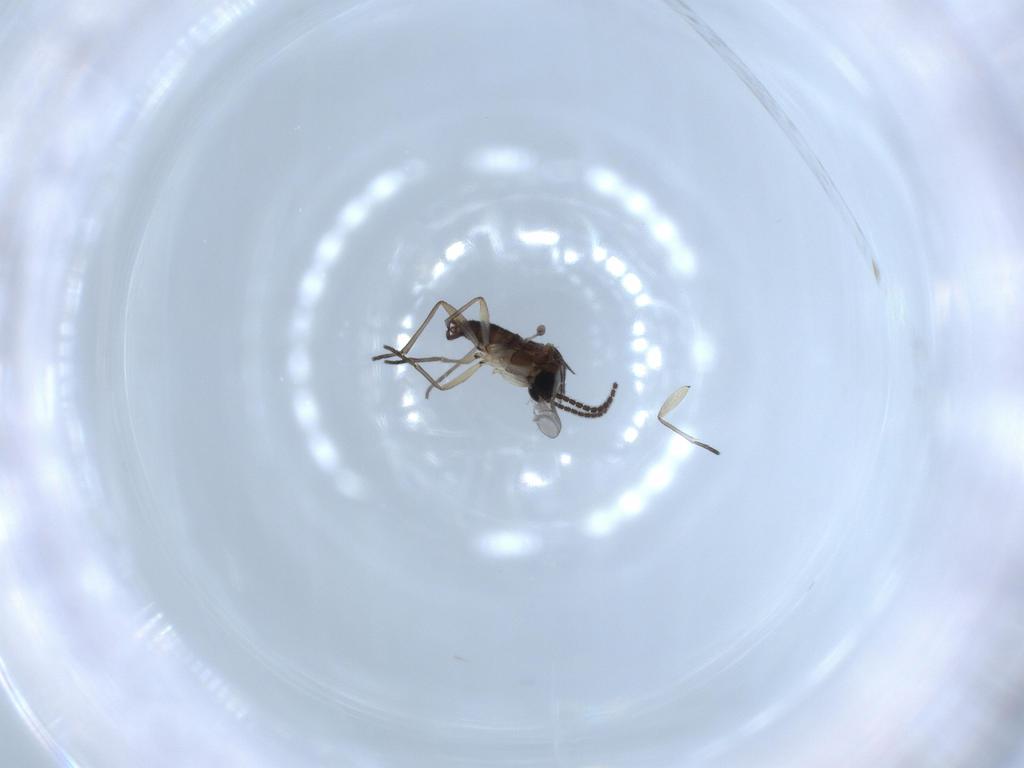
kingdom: Animalia
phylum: Arthropoda
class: Insecta
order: Diptera
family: Sciaridae
